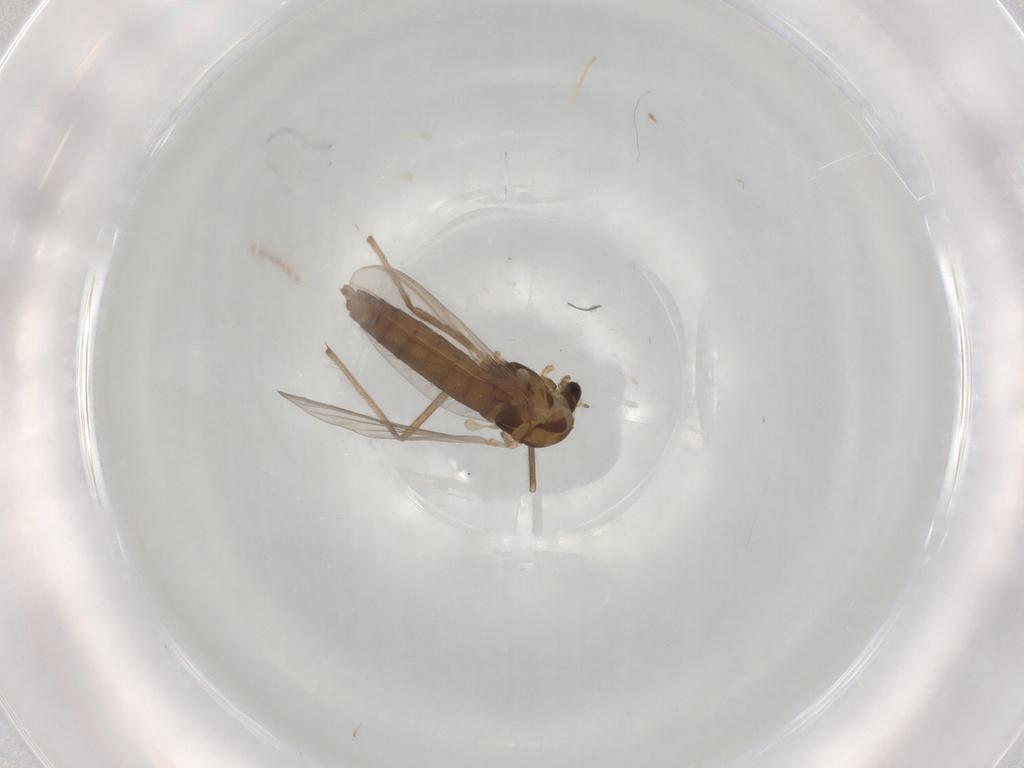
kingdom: Animalia
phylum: Arthropoda
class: Insecta
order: Diptera
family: Chironomidae
